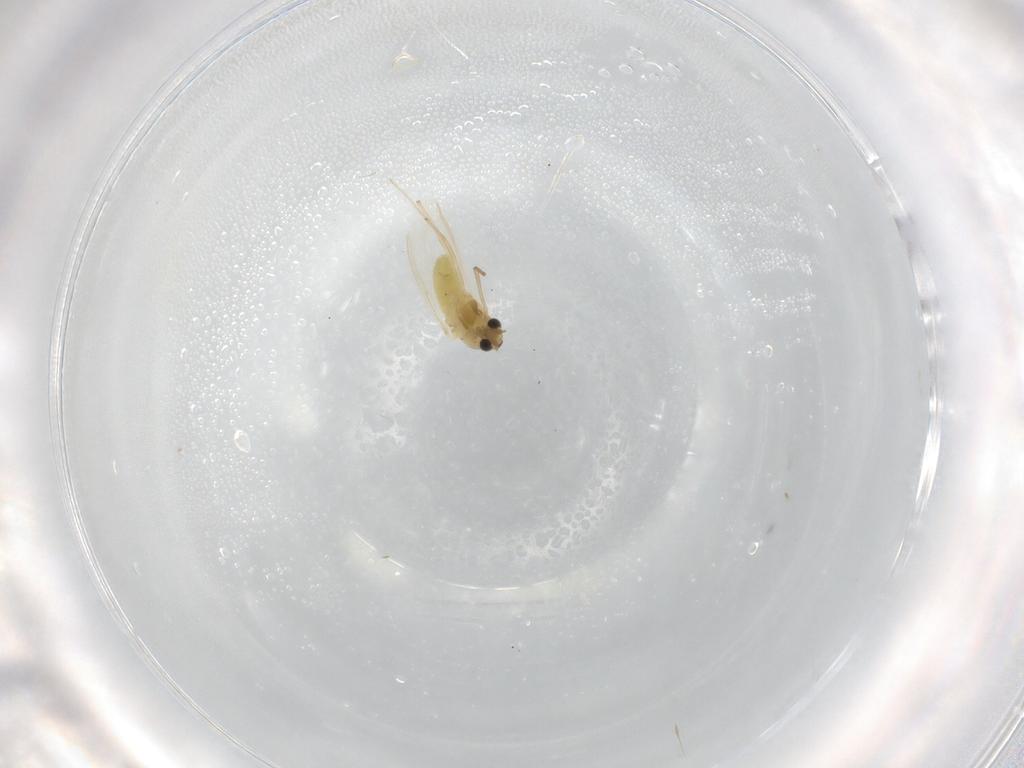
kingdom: Animalia
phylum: Arthropoda
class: Insecta
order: Diptera
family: Chironomidae
